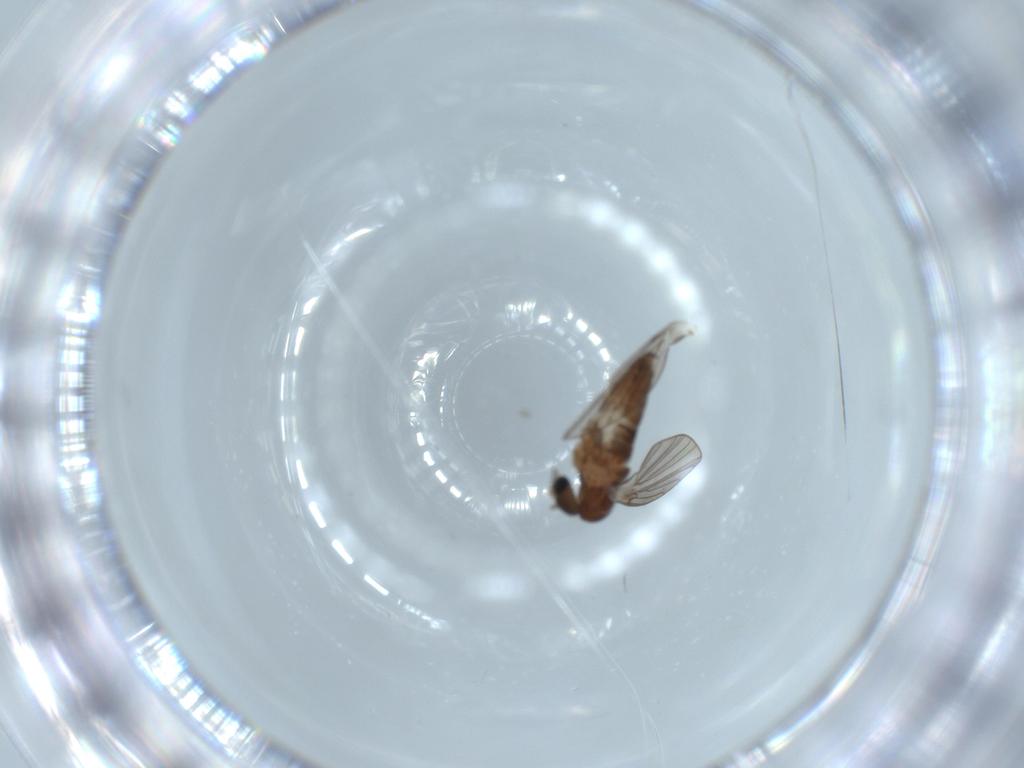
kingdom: Animalia
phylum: Arthropoda
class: Insecta
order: Diptera
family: Psychodidae
